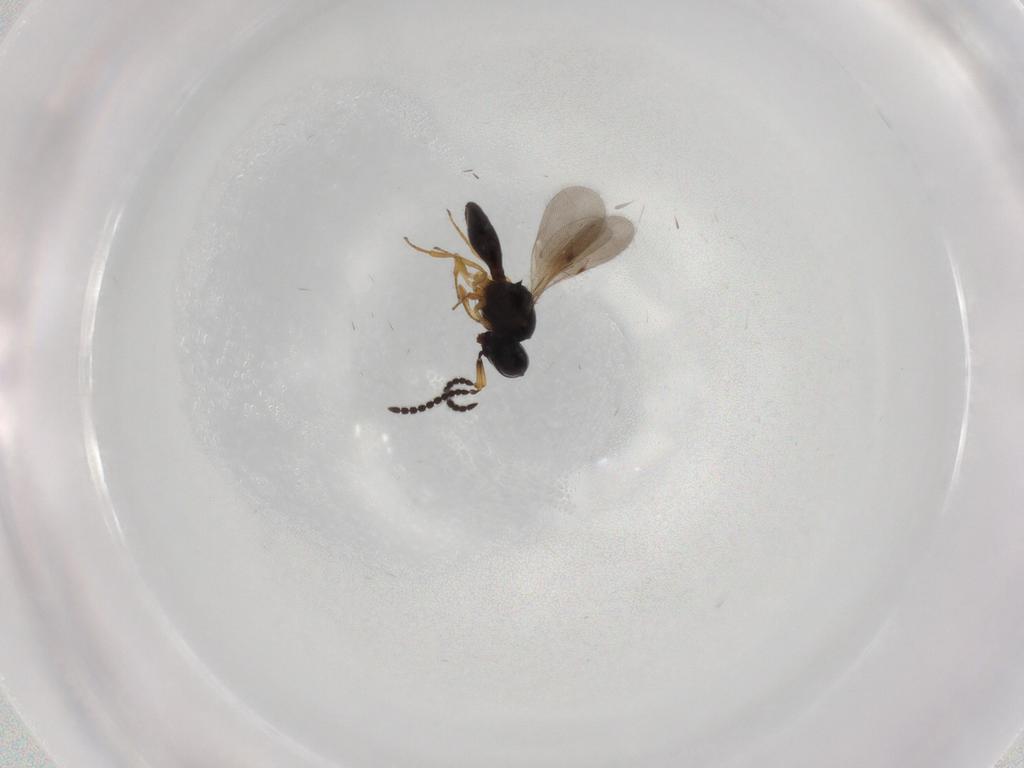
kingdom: Animalia
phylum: Arthropoda
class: Insecta
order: Hymenoptera
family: Scelionidae
